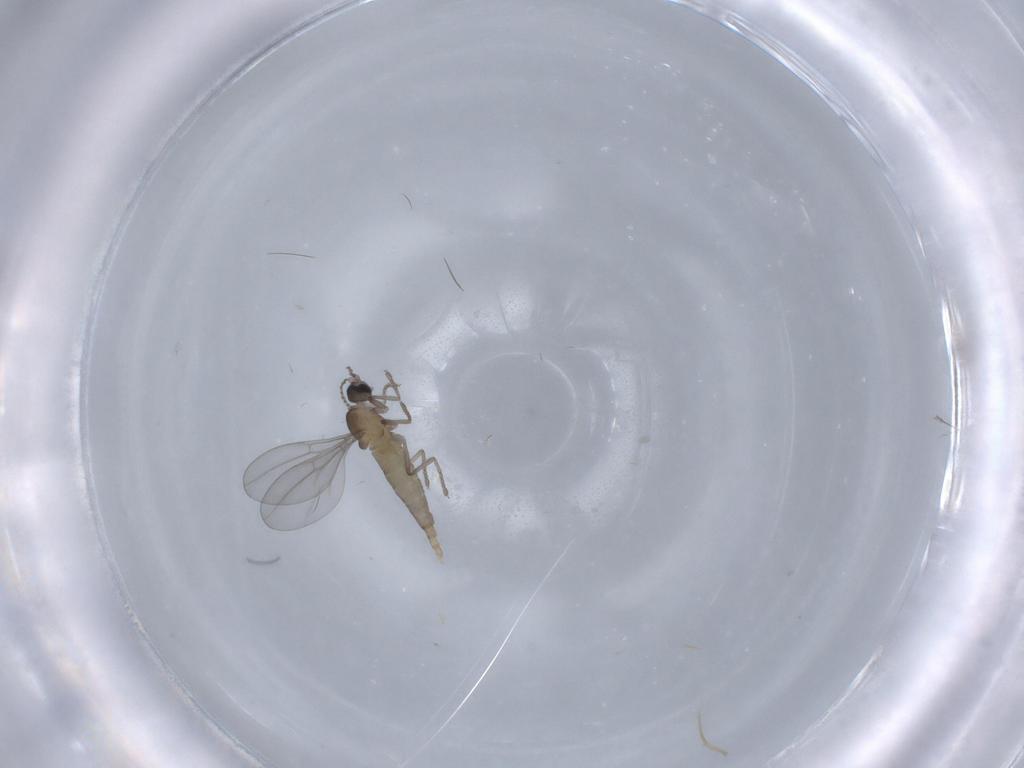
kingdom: Animalia
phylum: Arthropoda
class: Insecta
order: Diptera
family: Cecidomyiidae
